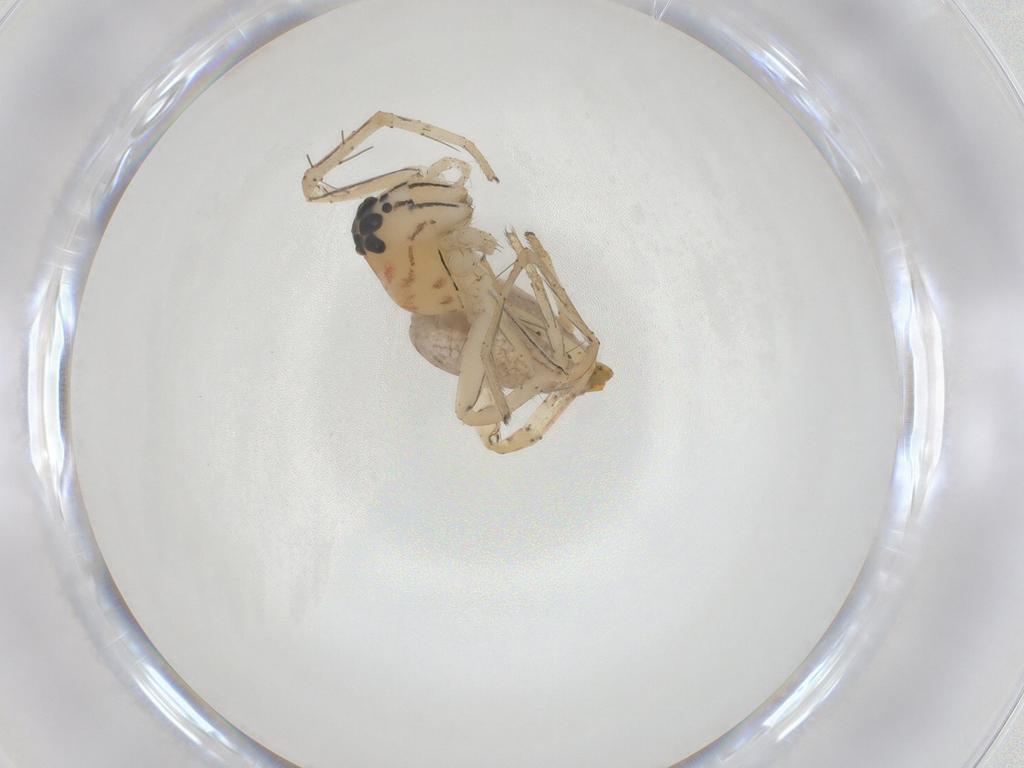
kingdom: Animalia
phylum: Arthropoda
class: Arachnida
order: Araneae
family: Oxyopidae
